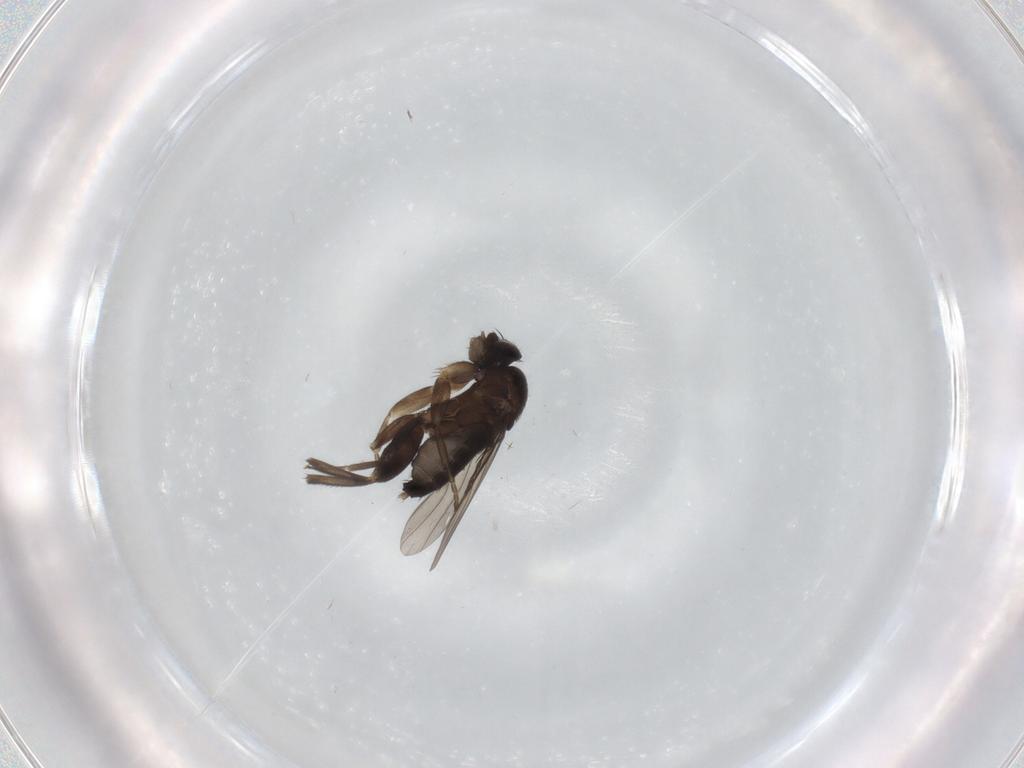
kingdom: Animalia
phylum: Arthropoda
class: Insecta
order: Diptera
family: Phoridae
